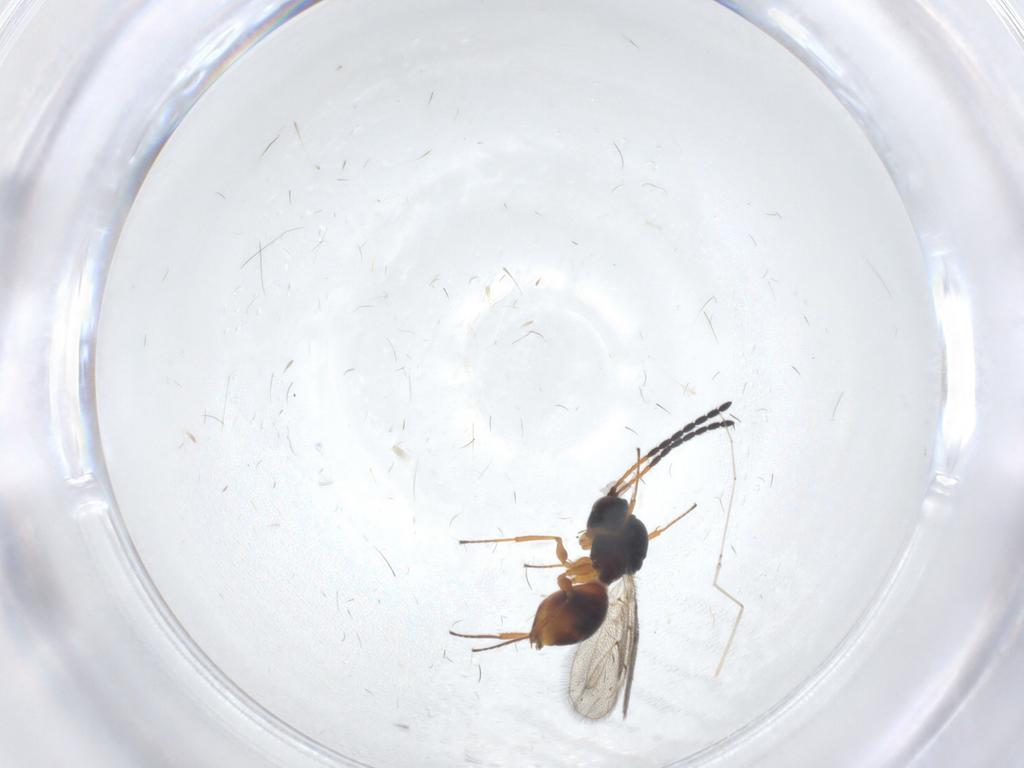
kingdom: Animalia
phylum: Arthropoda
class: Insecta
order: Hymenoptera
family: Figitidae
